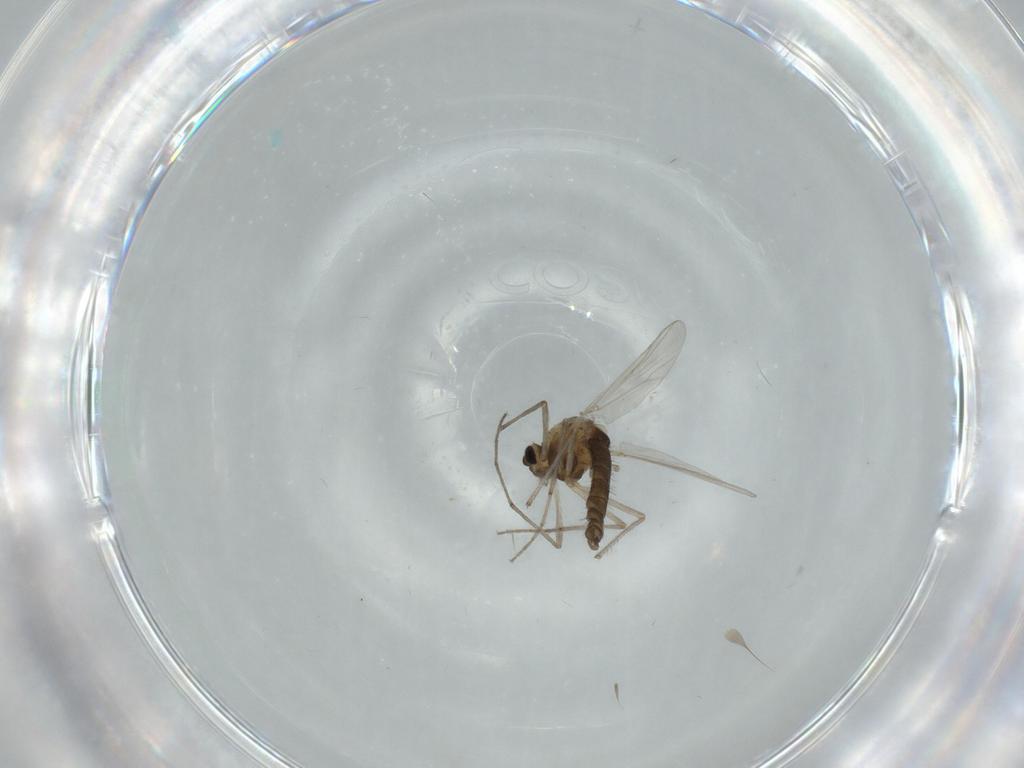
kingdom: Animalia
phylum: Arthropoda
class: Insecta
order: Diptera
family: Chironomidae
